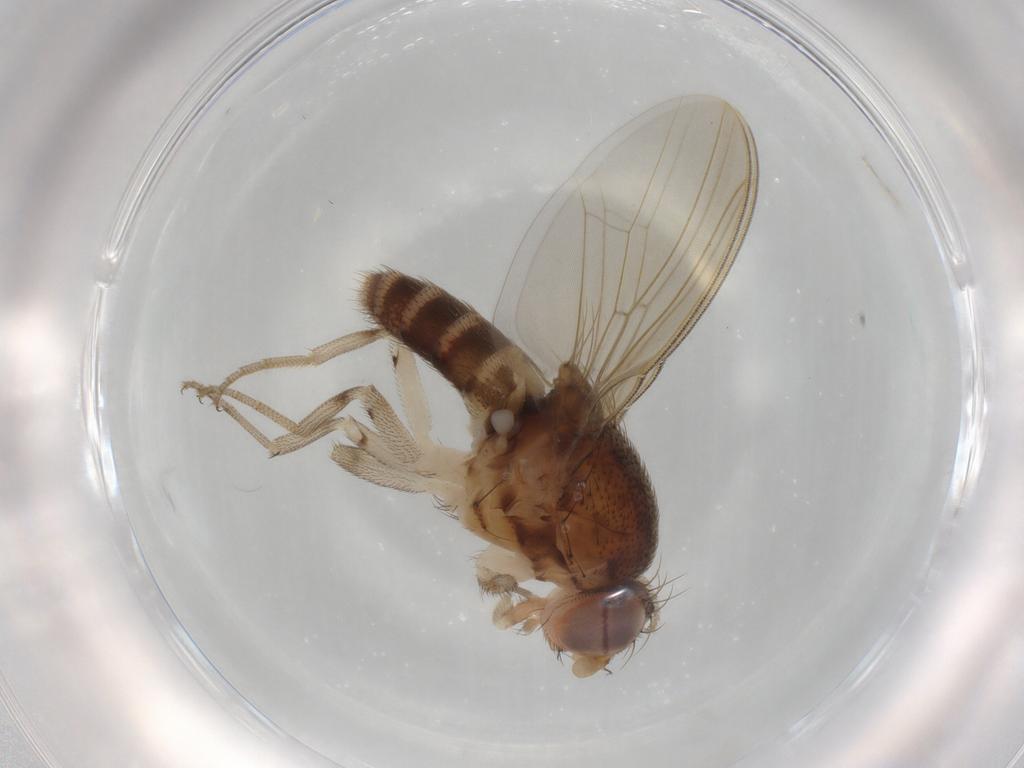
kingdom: Animalia
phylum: Arthropoda
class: Insecta
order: Diptera
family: Drosophilidae
